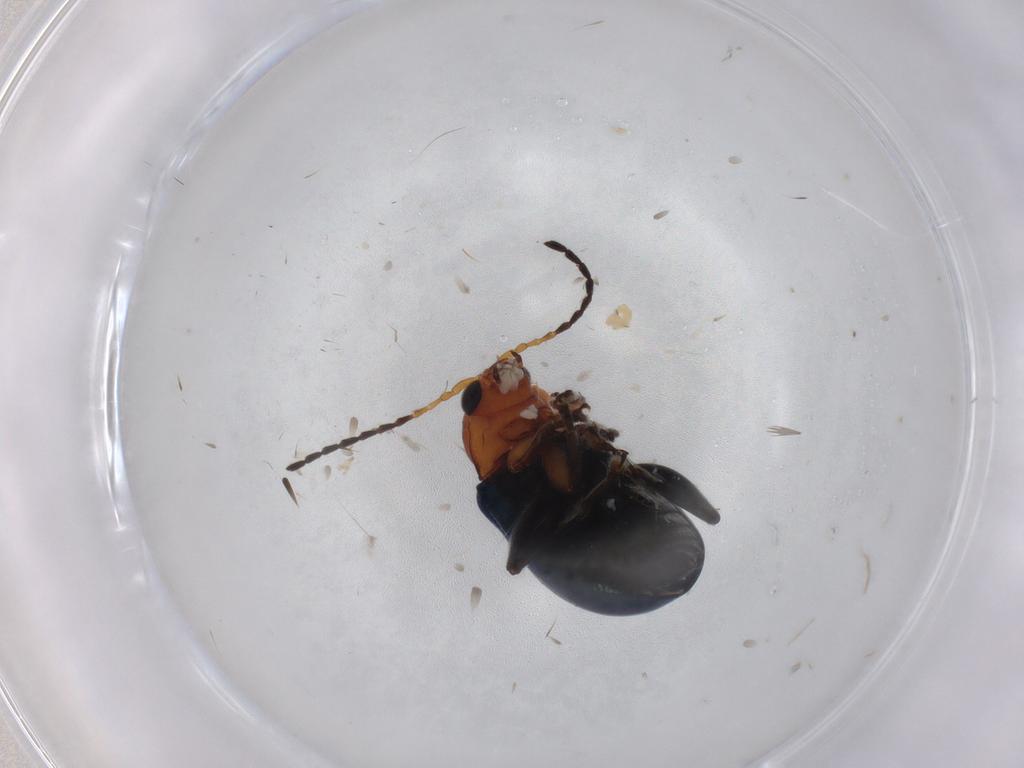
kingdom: Animalia
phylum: Arthropoda
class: Insecta
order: Coleoptera
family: Chrysomelidae
